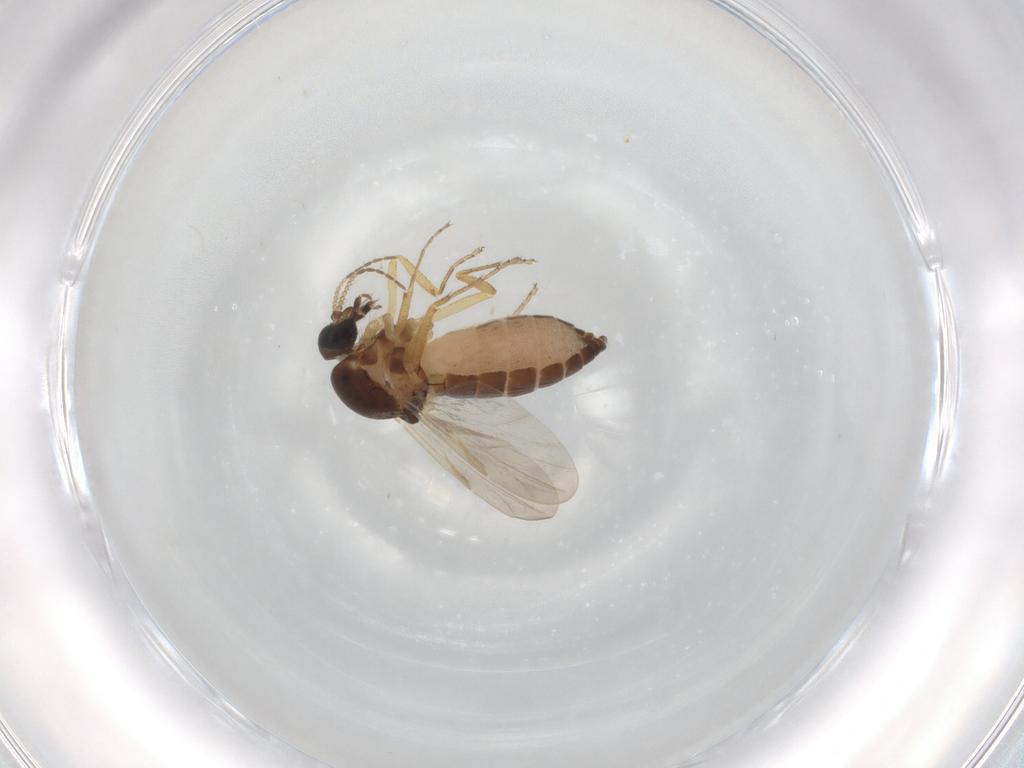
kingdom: Animalia
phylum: Arthropoda
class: Insecta
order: Diptera
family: Ceratopogonidae
